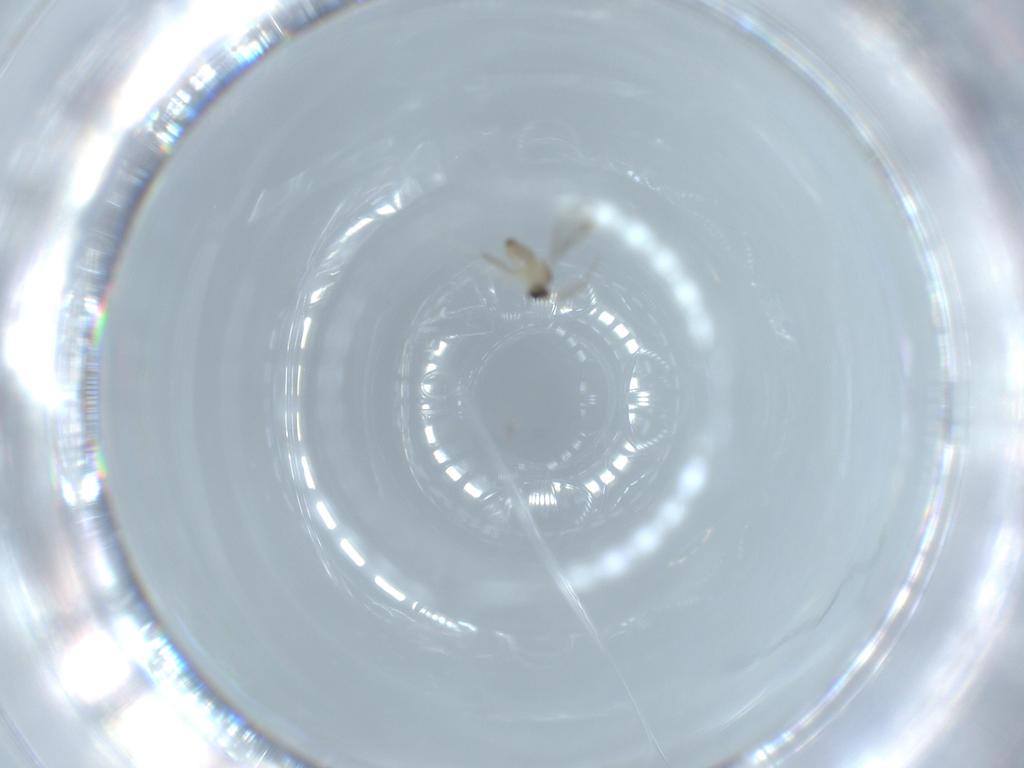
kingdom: Animalia
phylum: Arthropoda
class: Insecta
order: Diptera
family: Cecidomyiidae
